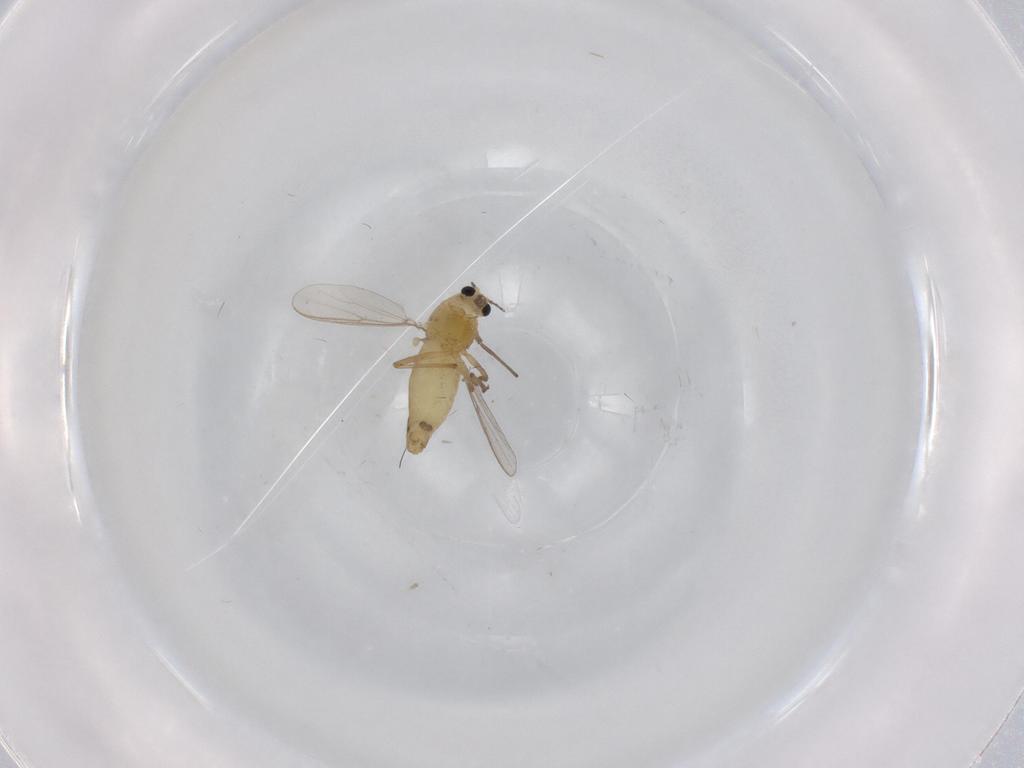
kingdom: Animalia
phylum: Arthropoda
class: Insecta
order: Diptera
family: Chironomidae
